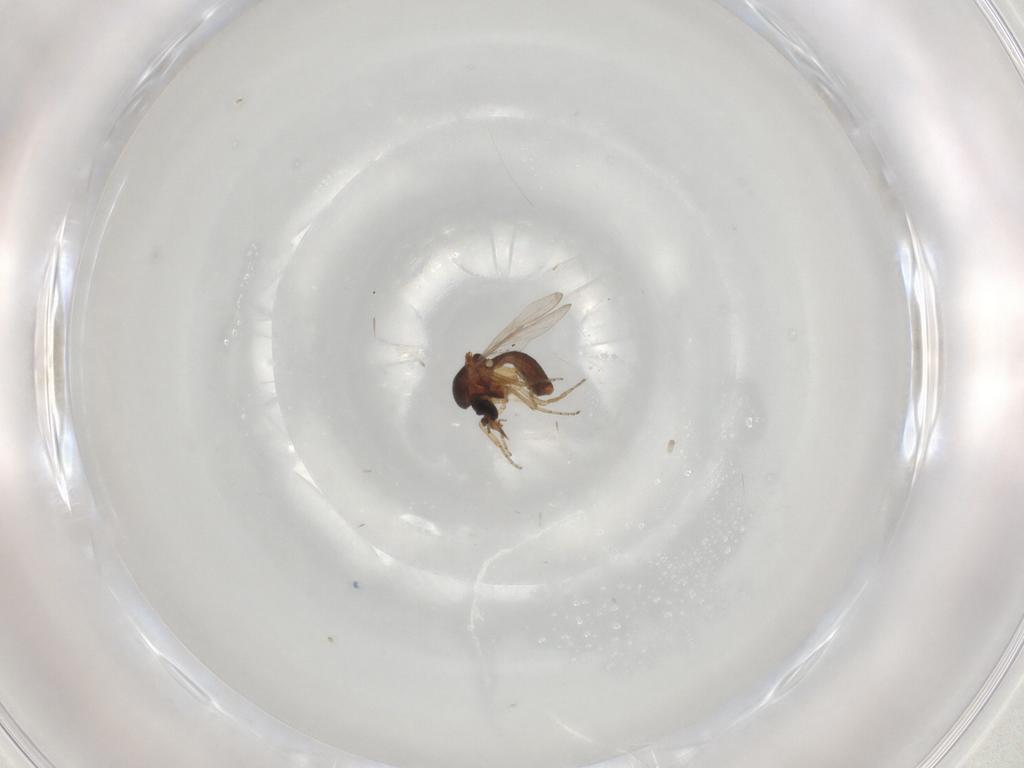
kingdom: Animalia
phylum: Arthropoda
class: Insecta
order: Diptera
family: Ceratopogonidae
